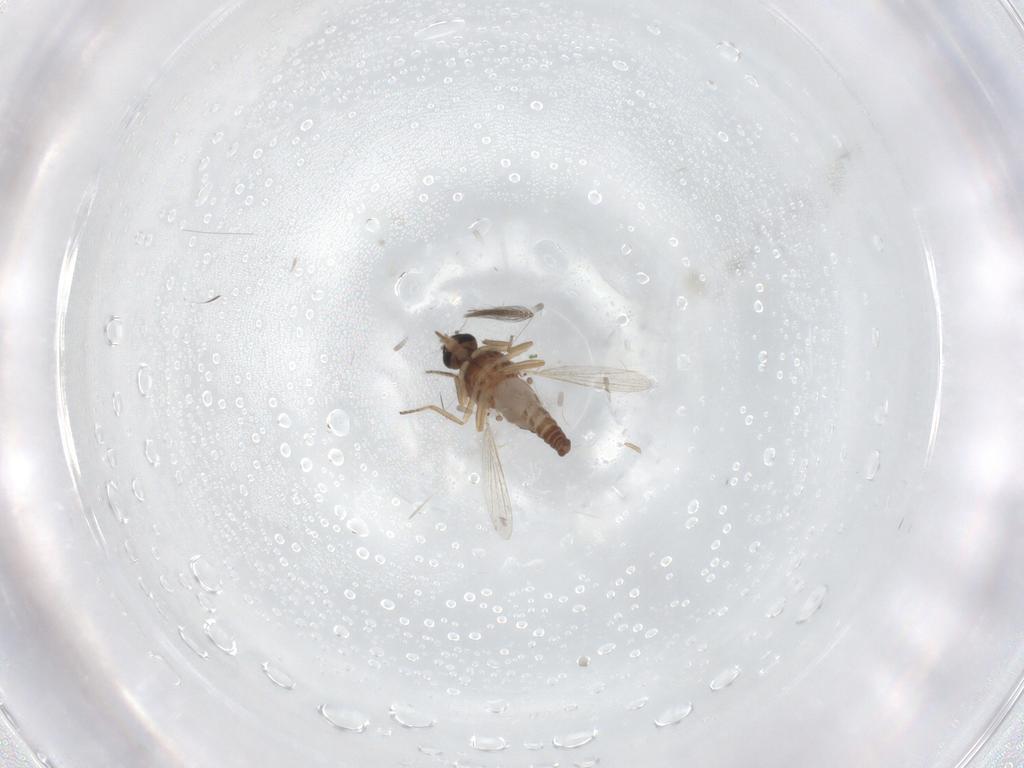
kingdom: Animalia
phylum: Arthropoda
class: Insecta
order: Diptera
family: Ceratopogonidae
